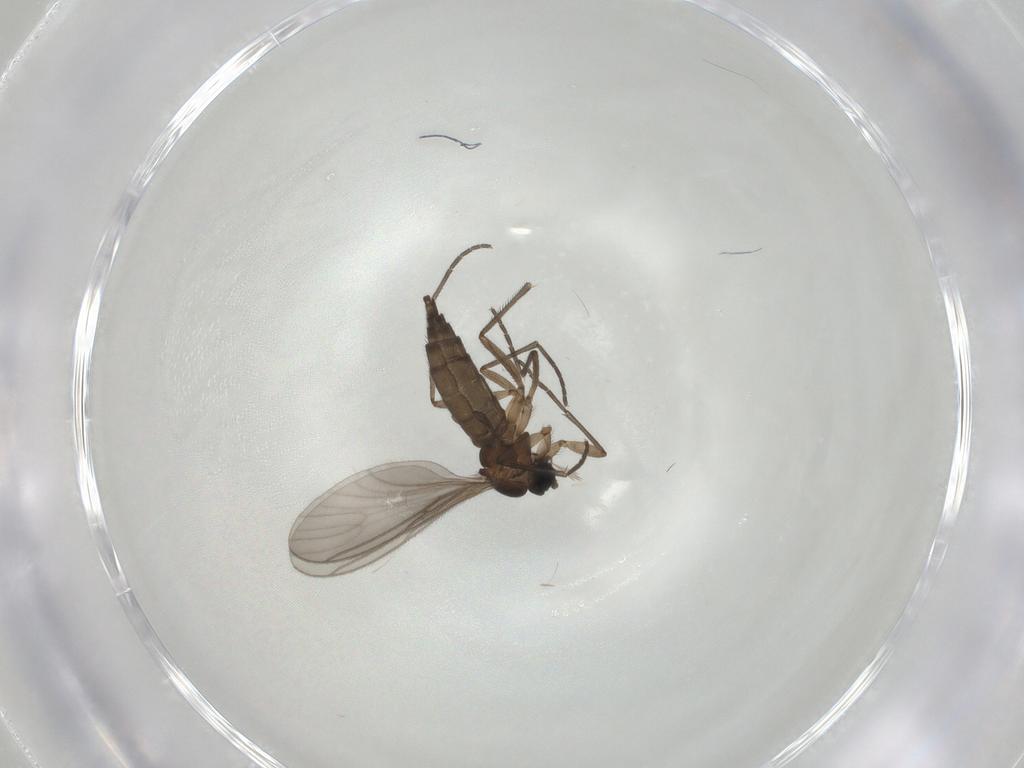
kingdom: Animalia
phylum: Arthropoda
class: Insecta
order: Diptera
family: Sciaridae
